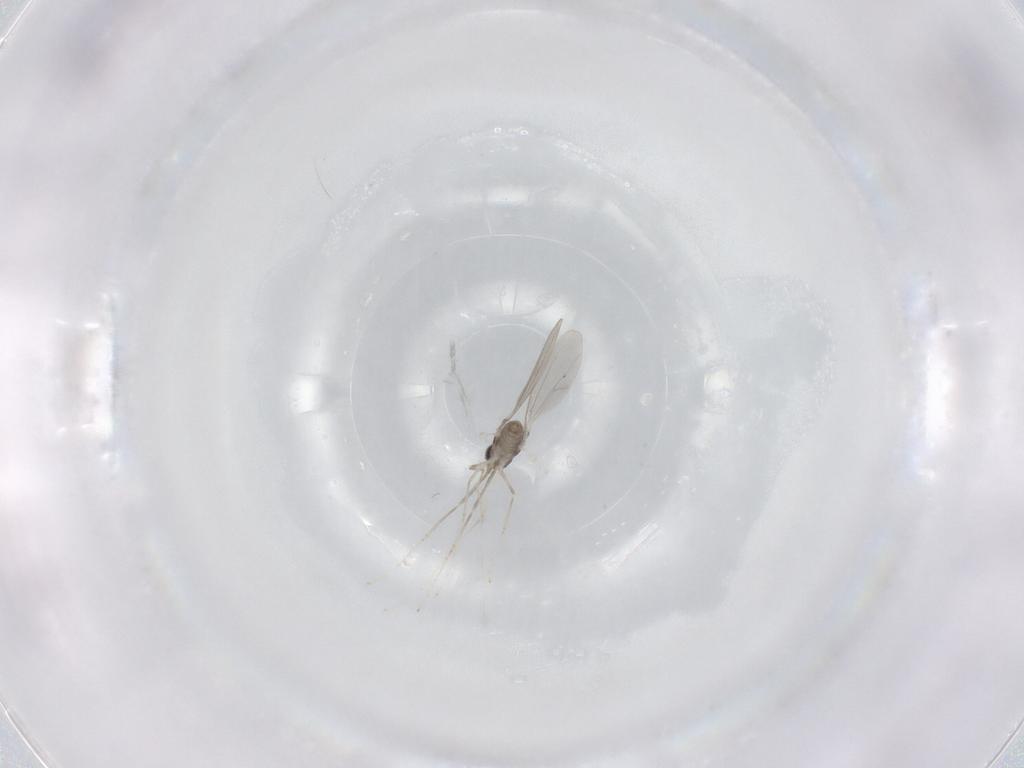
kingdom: Animalia
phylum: Arthropoda
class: Insecta
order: Diptera
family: Cecidomyiidae
